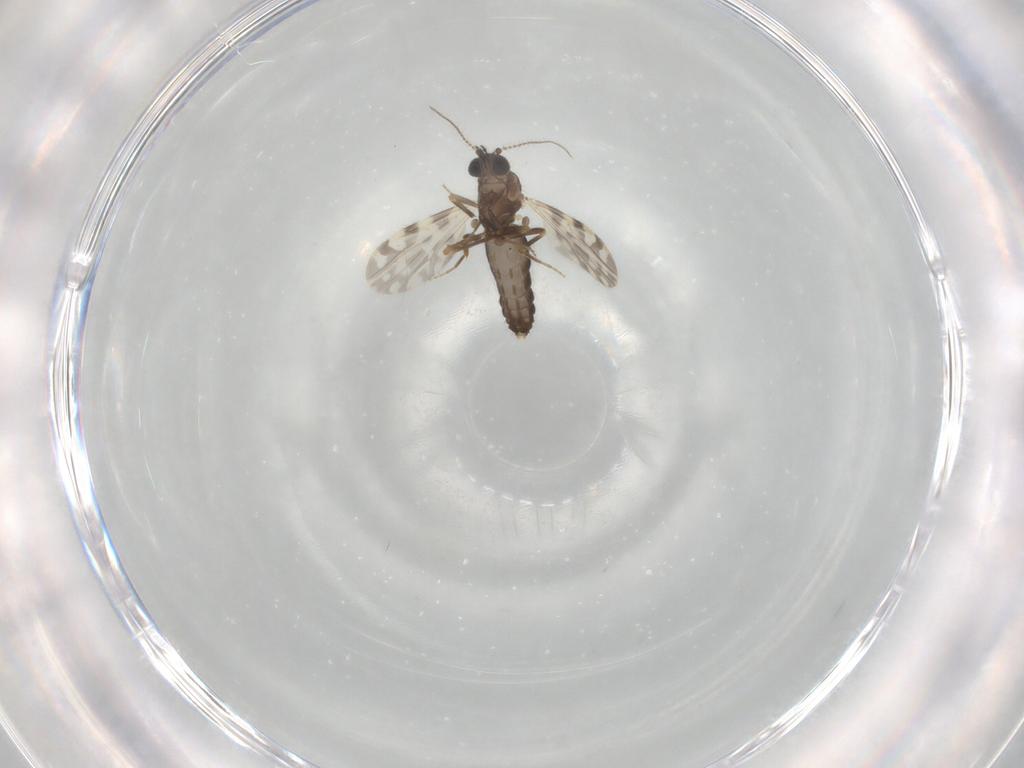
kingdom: Animalia
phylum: Arthropoda
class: Insecta
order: Diptera
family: Ceratopogonidae
